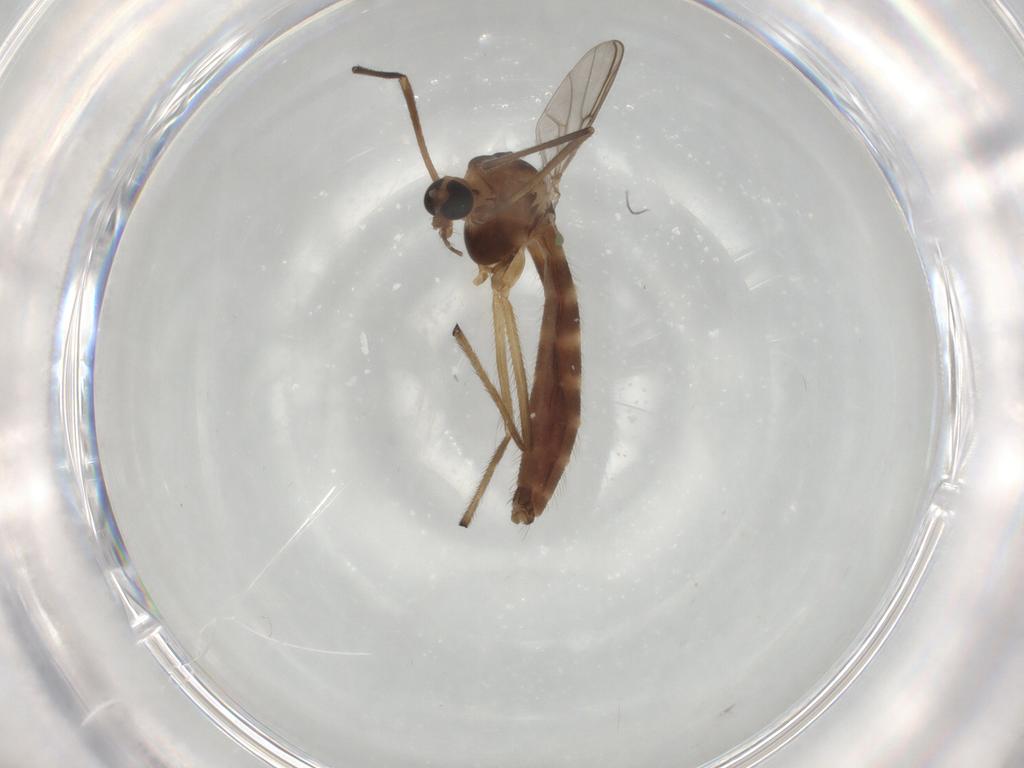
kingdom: Animalia
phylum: Arthropoda
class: Insecta
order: Diptera
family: Chironomidae
